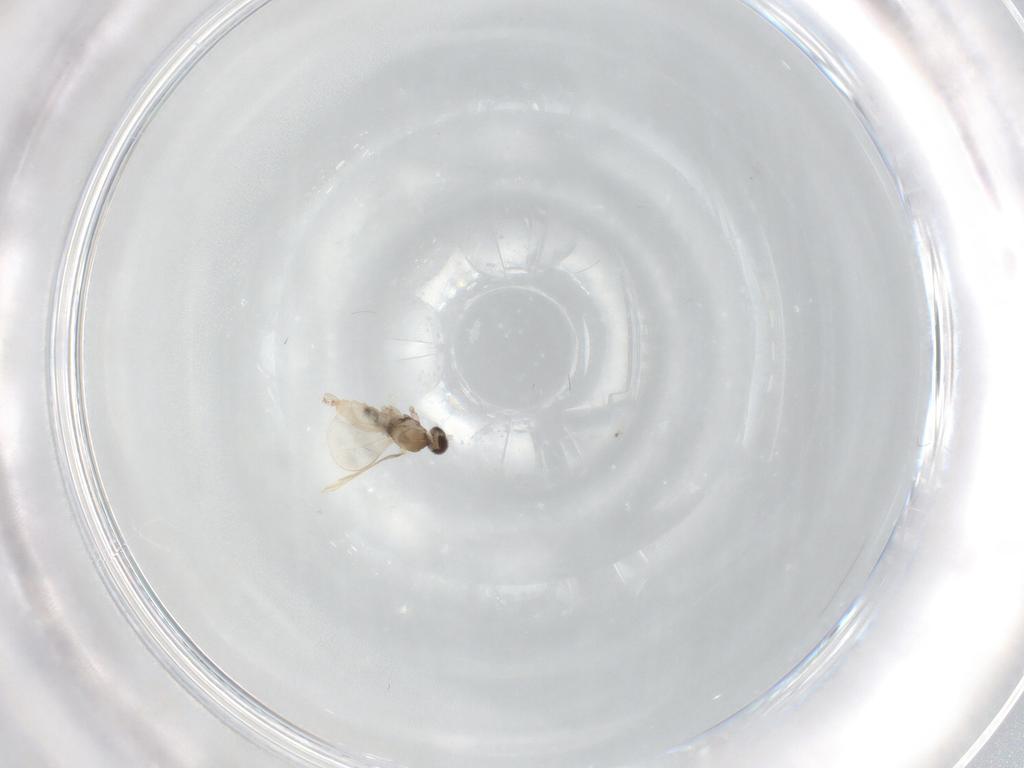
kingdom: Animalia
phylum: Arthropoda
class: Insecta
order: Diptera
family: Cecidomyiidae
